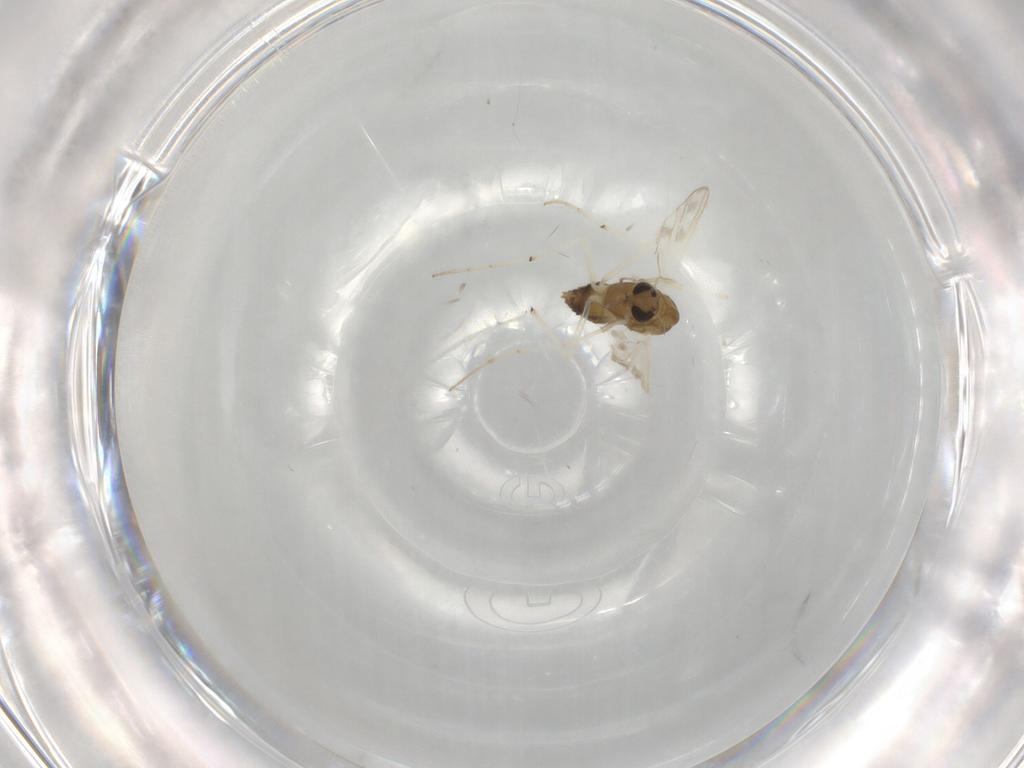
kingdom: Animalia
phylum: Arthropoda
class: Insecta
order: Diptera
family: Chironomidae
